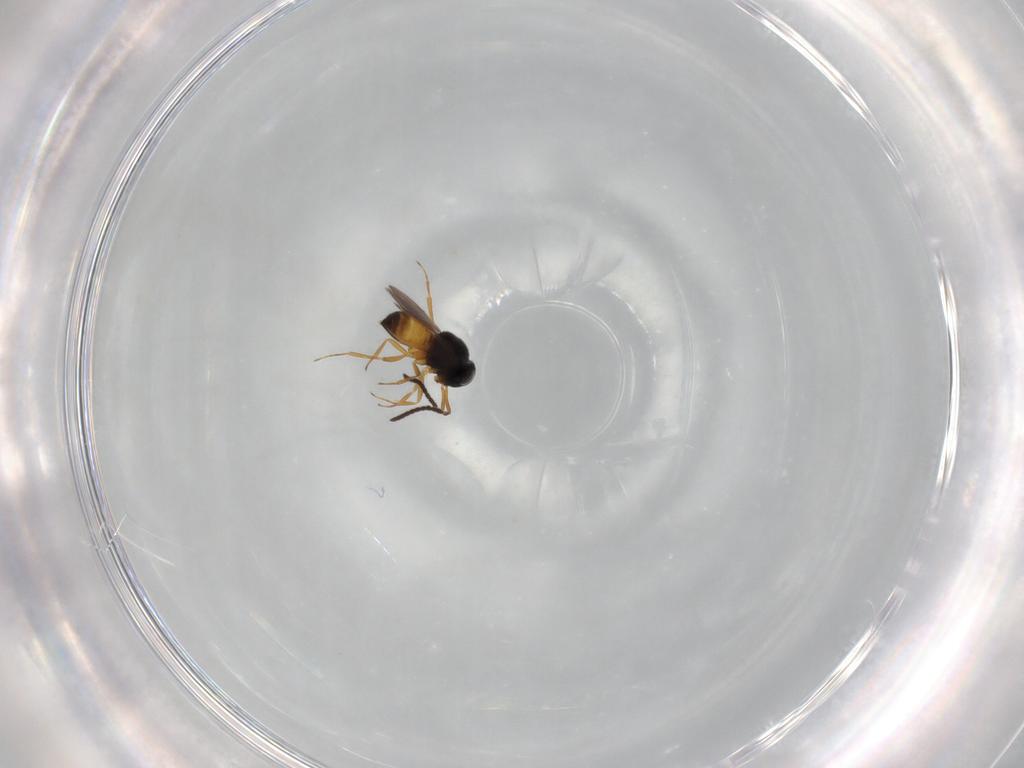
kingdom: Animalia
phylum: Arthropoda
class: Insecta
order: Hymenoptera
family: Scelionidae
